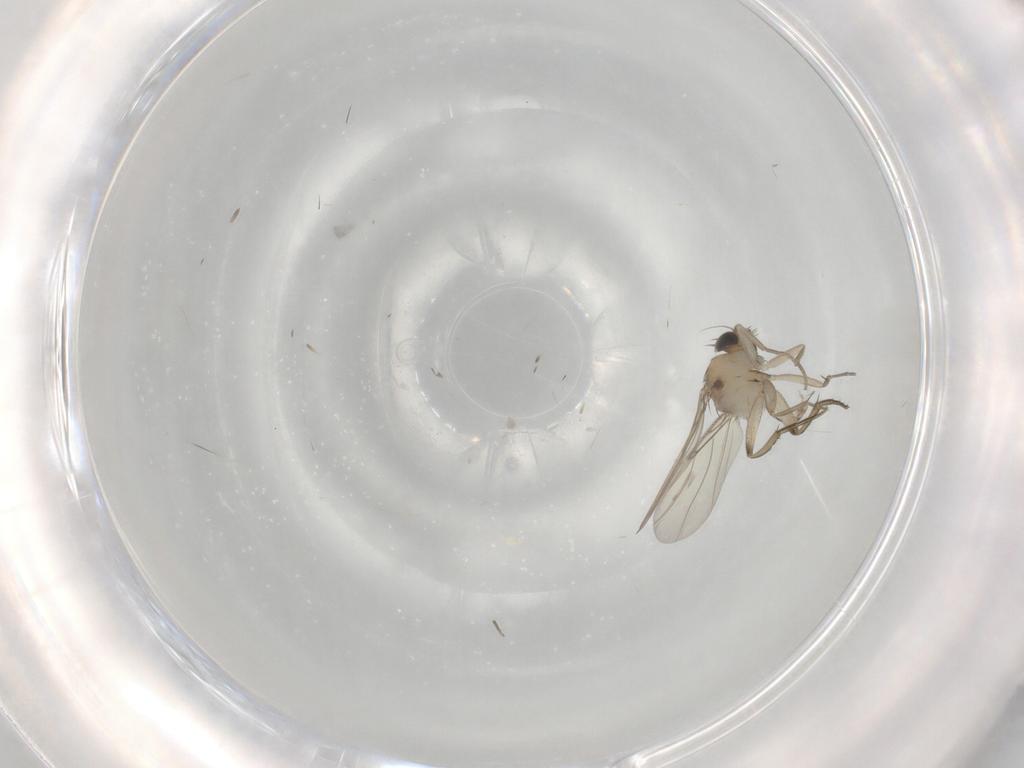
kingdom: Animalia
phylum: Arthropoda
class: Insecta
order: Diptera
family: Phoridae
